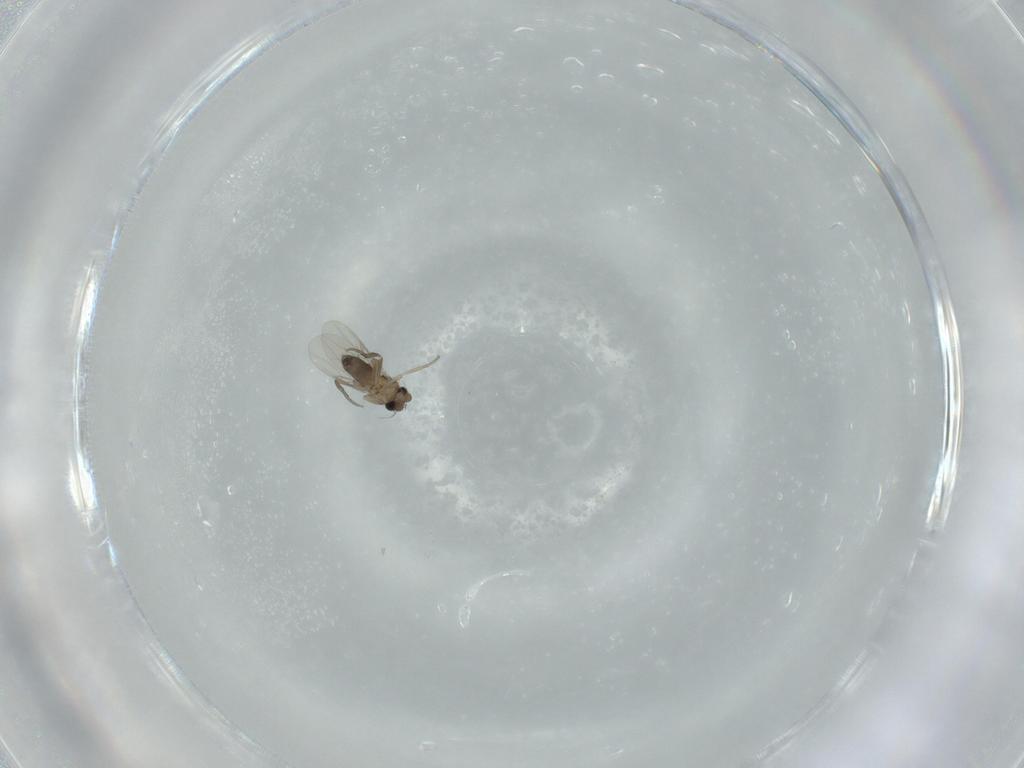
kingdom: Animalia
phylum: Arthropoda
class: Insecta
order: Diptera
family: Phoridae
